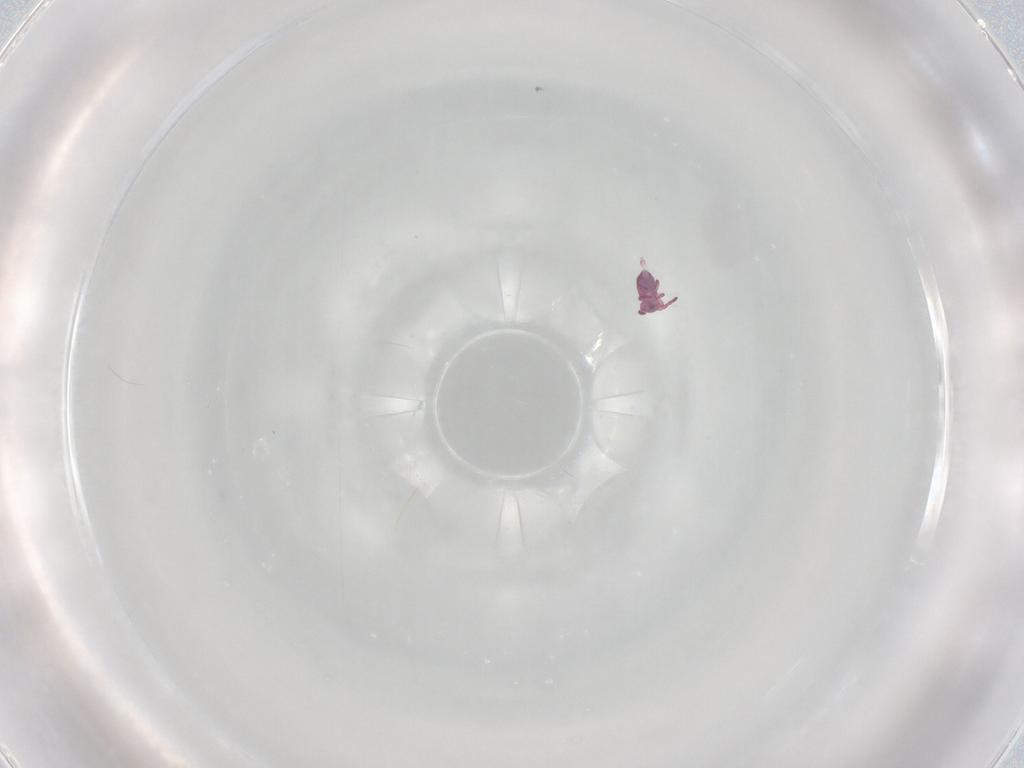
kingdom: Animalia
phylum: Arthropoda
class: Collembola
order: Symphypleona
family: Sminthurididae
